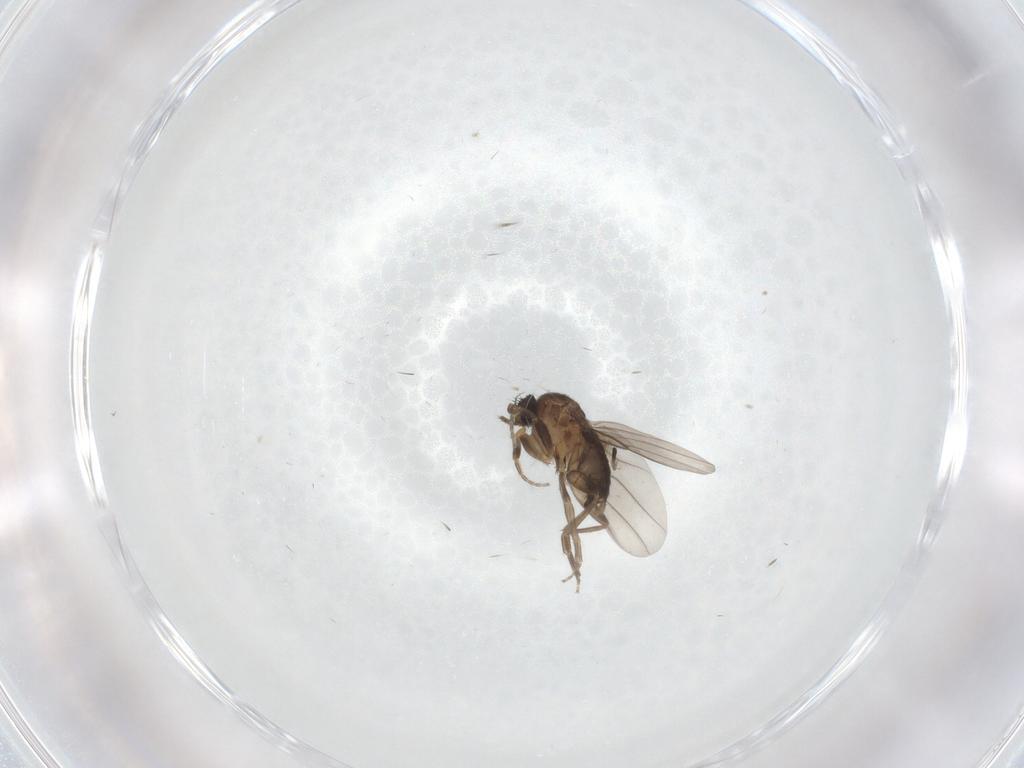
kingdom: Animalia
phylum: Arthropoda
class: Insecta
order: Diptera
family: Phoridae
